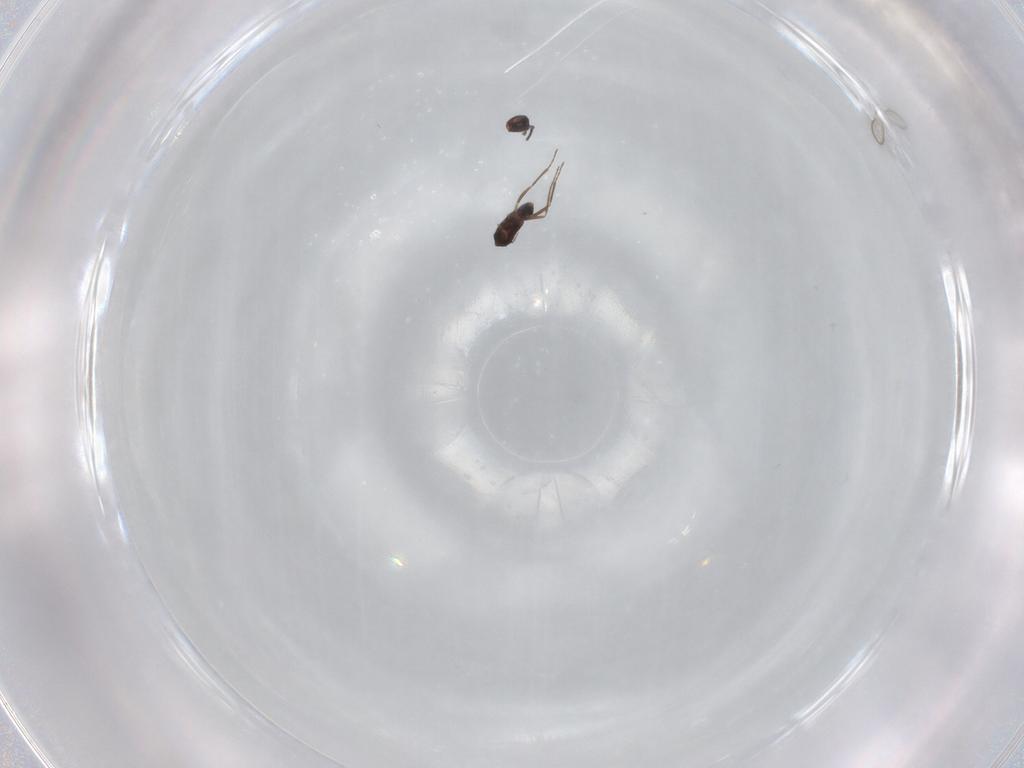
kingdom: Animalia
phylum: Arthropoda
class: Insecta
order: Hymenoptera
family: Mymaridae
